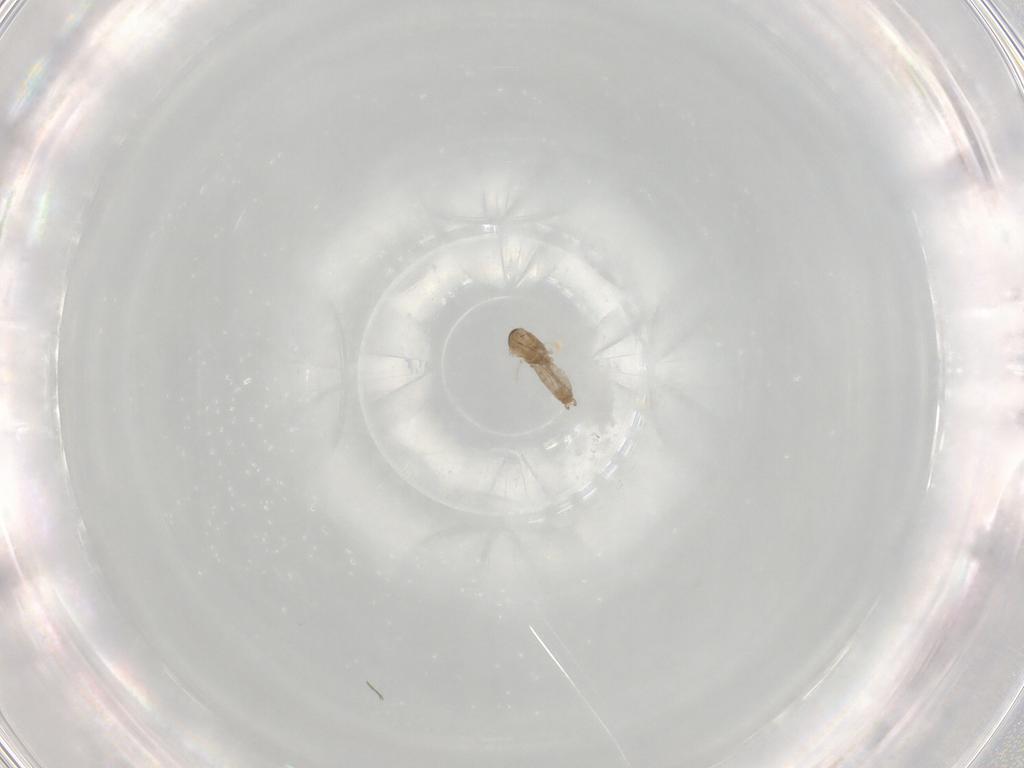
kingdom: Animalia
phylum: Arthropoda
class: Insecta
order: Diptera
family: Cecidomyiidae
